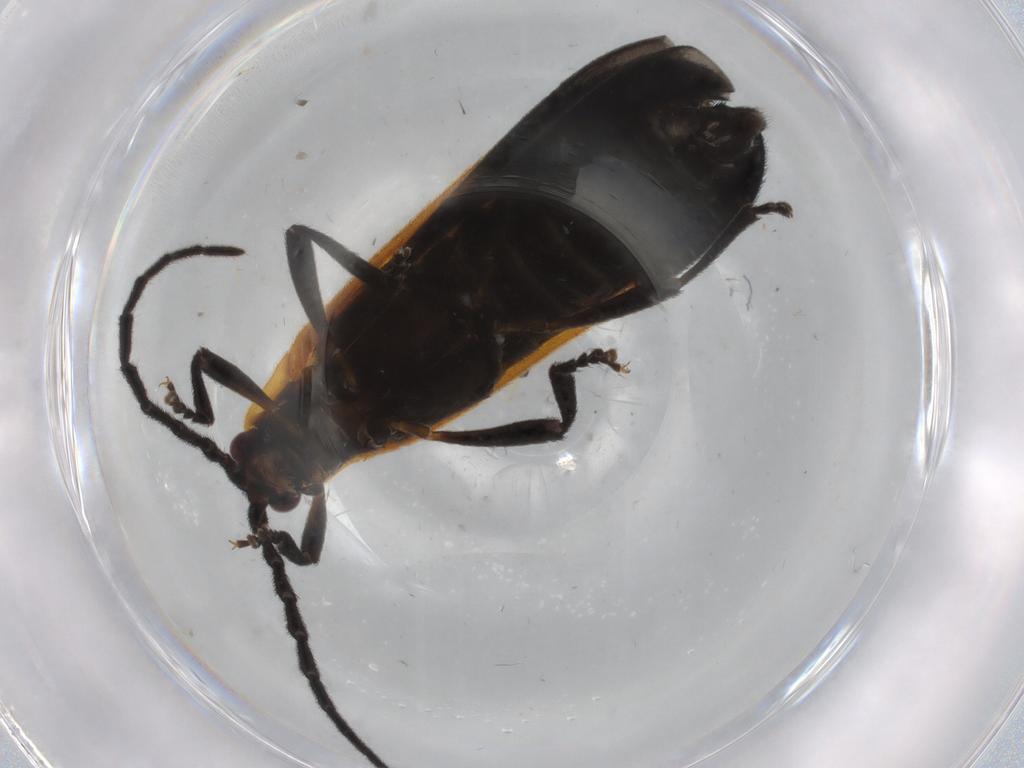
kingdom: Animalia
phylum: Arthropoda
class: Insecta
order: Coleoptera
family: Lycidae
